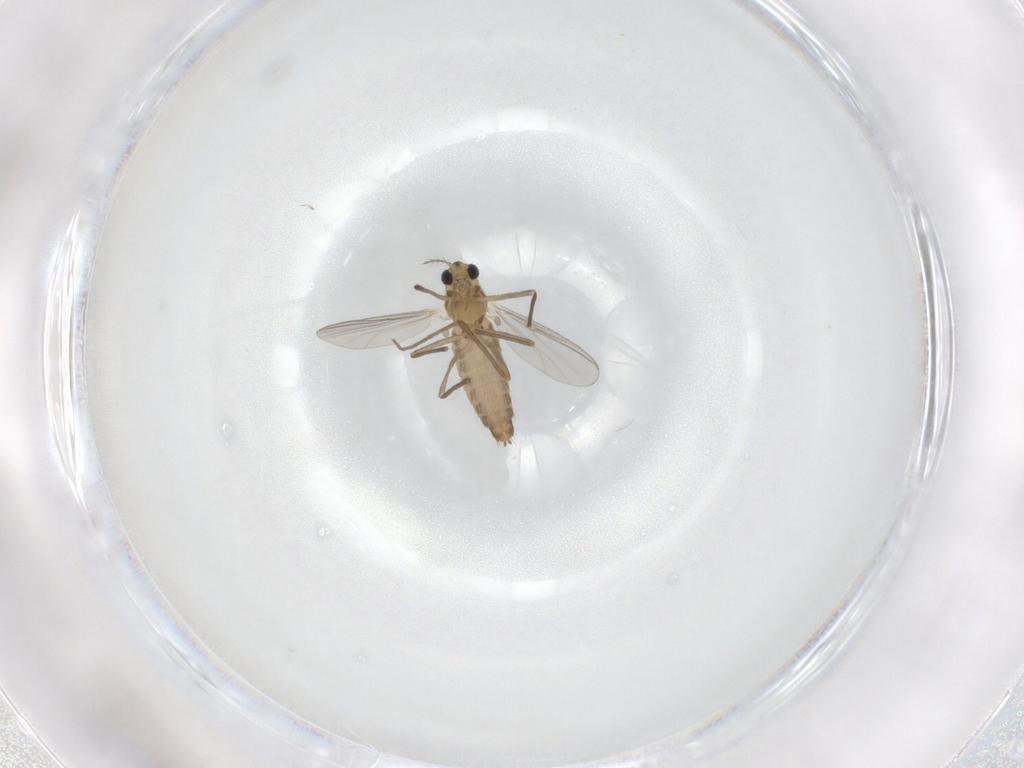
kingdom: Animalia
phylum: Arthropoda
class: Insecta
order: Diptera
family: Chironomidae
